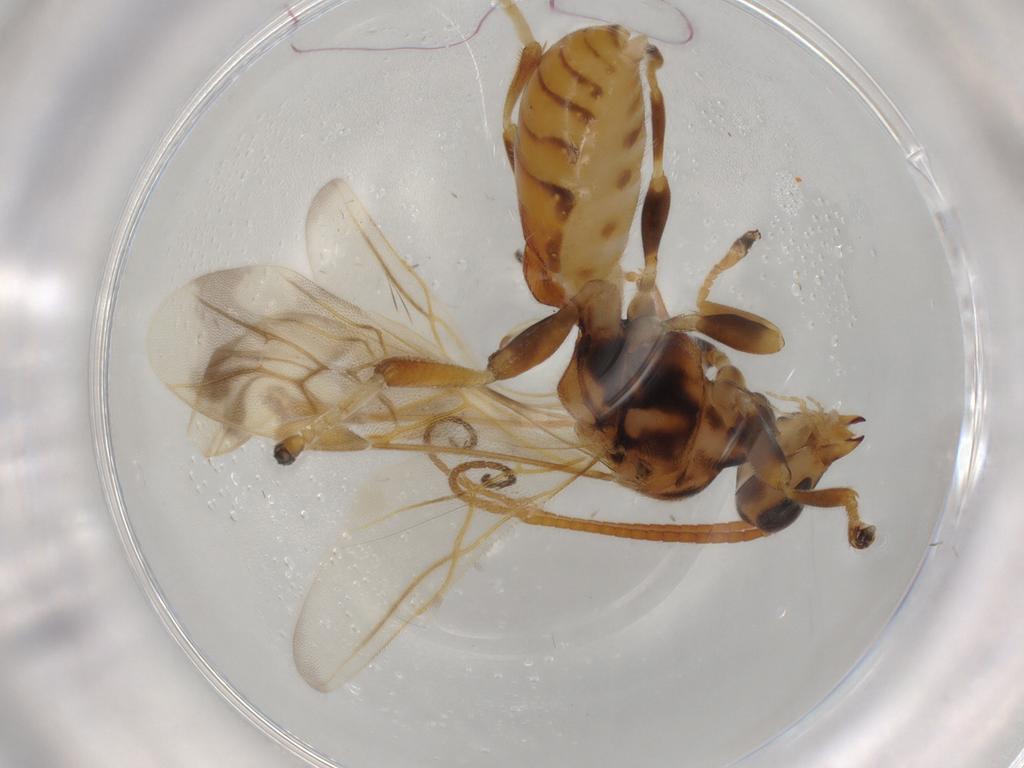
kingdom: Animalia
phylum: Arthropoda
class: Insecta
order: Hymenoptera
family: Braconidae
